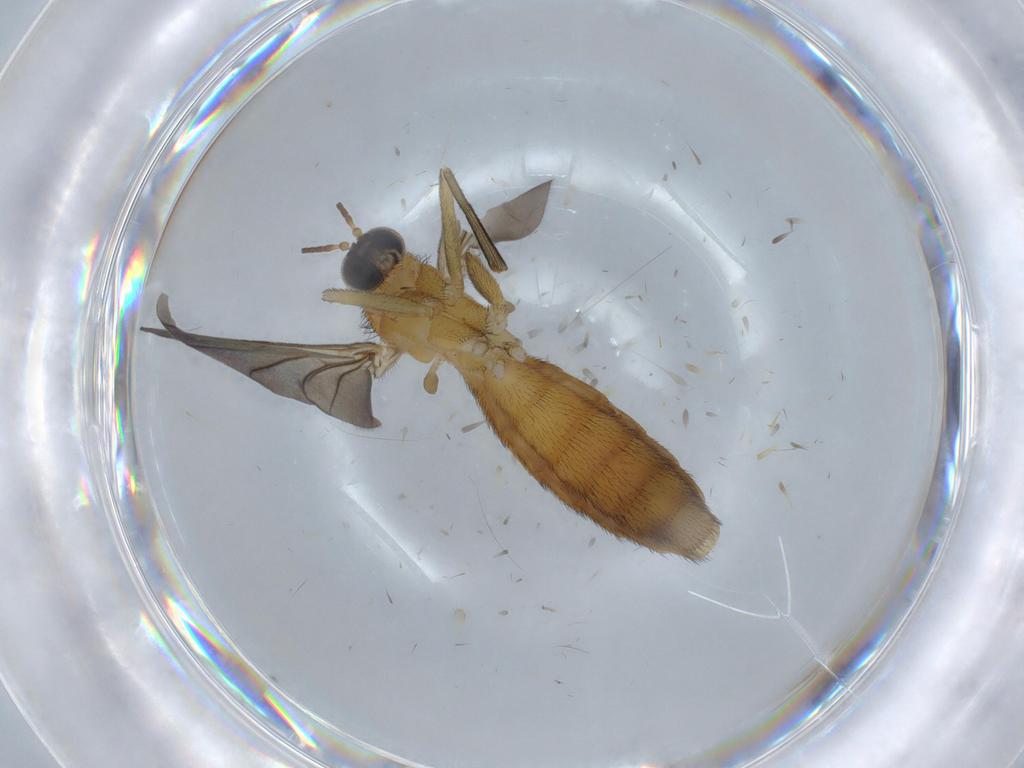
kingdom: Animalia
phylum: Arthropoda
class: Insecta
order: Diptera
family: Keroplatidae
